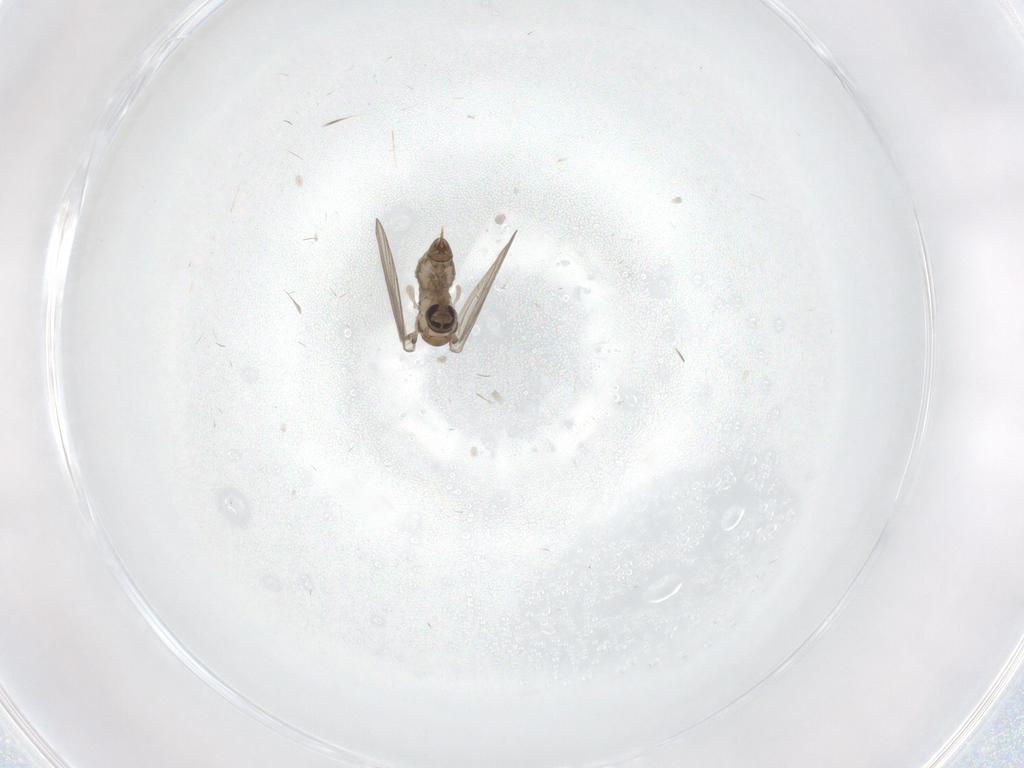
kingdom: Animalia
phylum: Arthropoda
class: Insecta
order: Diptera
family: Psychodidae
